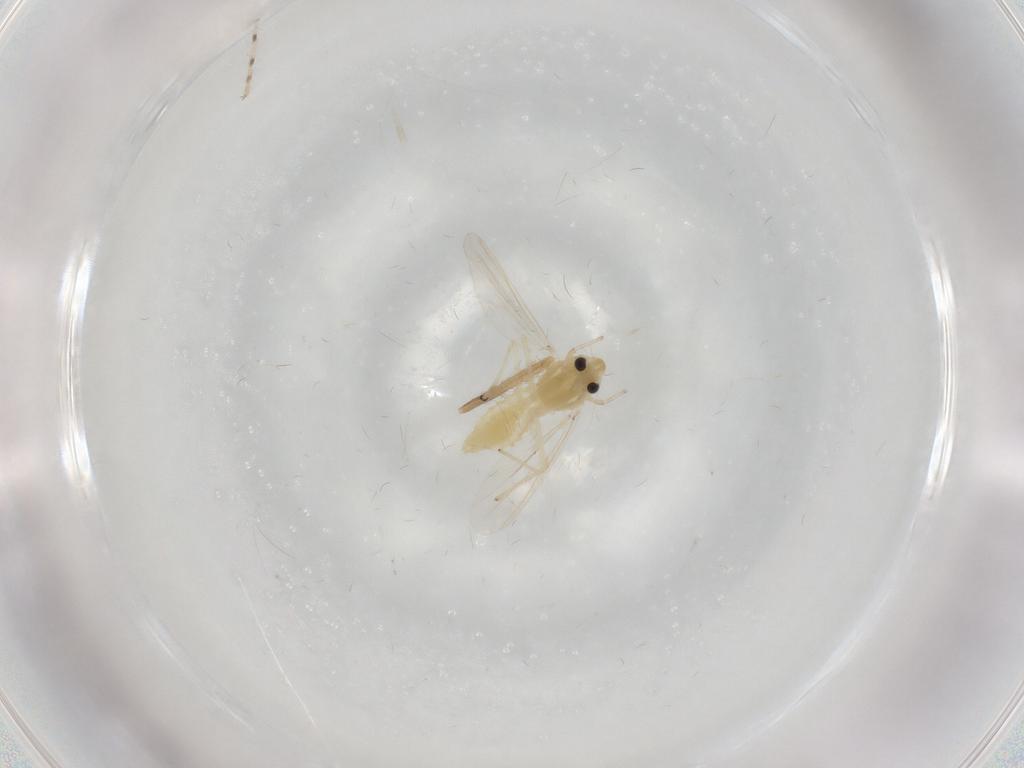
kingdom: Animalia
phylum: Arthropoda
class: Insecta
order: Diptera
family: Chironomidae
